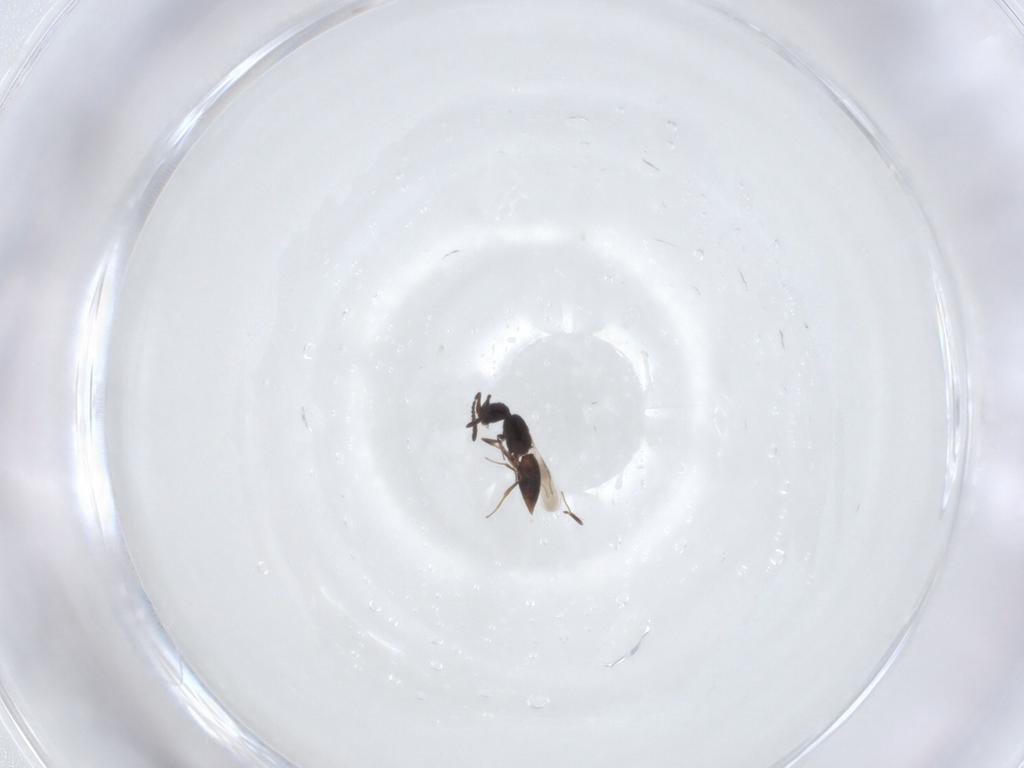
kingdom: Animalia
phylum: Arthropoda
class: Insecta
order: Hymenoptera
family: Ceraphronidae
